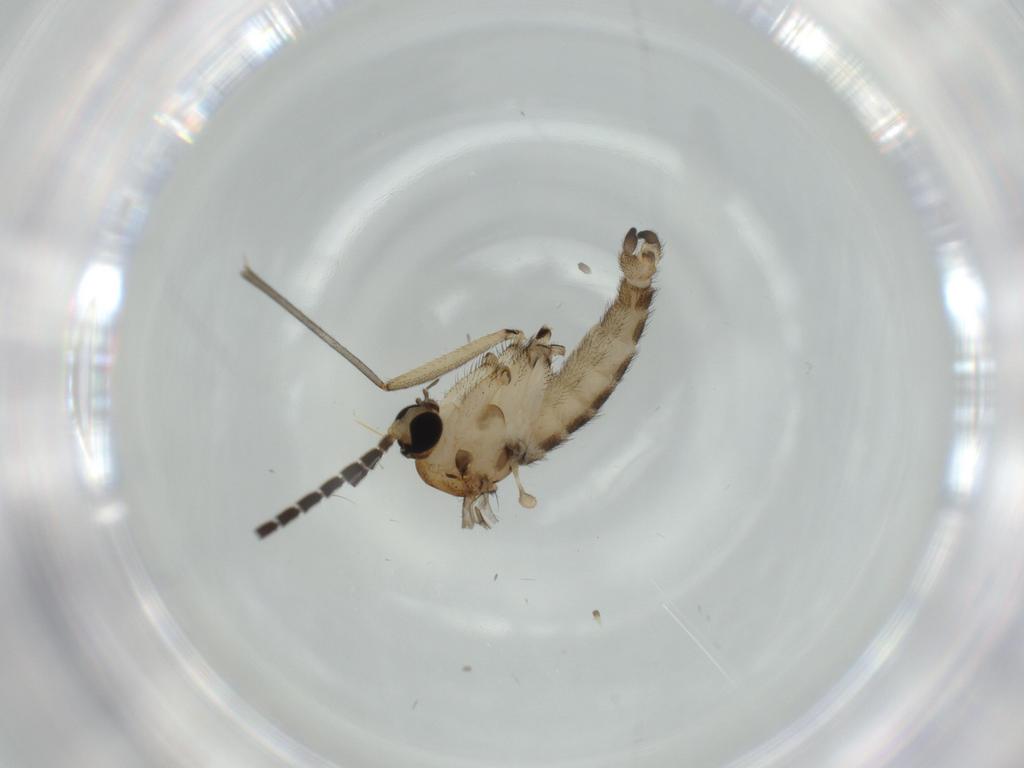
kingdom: Animalia
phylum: Arthropoda
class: Insecta
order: Diptera
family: Sciaridae
